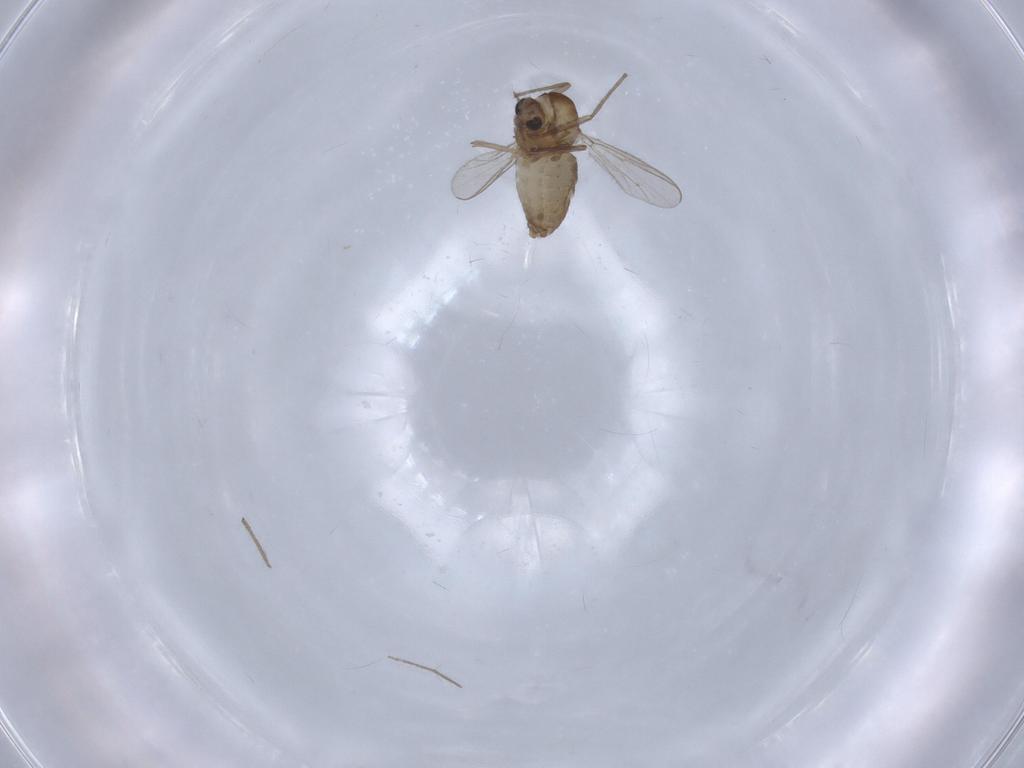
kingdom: Animalia
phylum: Arthropoda
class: Insecta
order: Diptera
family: Chironomidae
